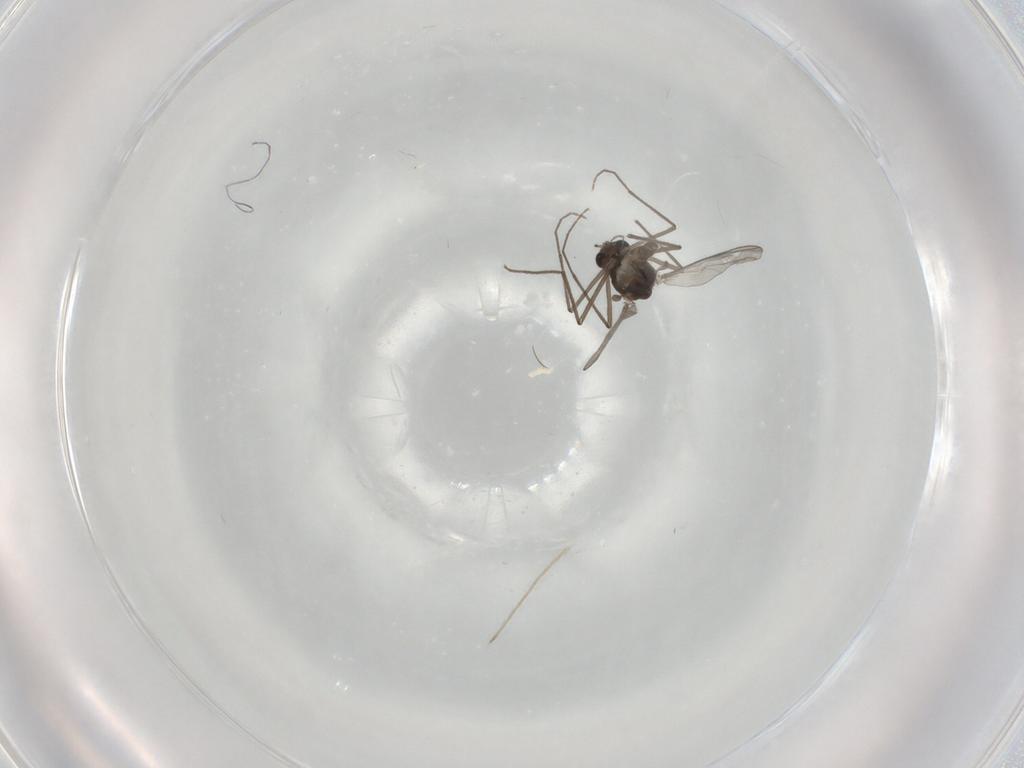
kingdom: Animalia
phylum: Arthropoda
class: Insecta
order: Diptera
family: Chironomidae
